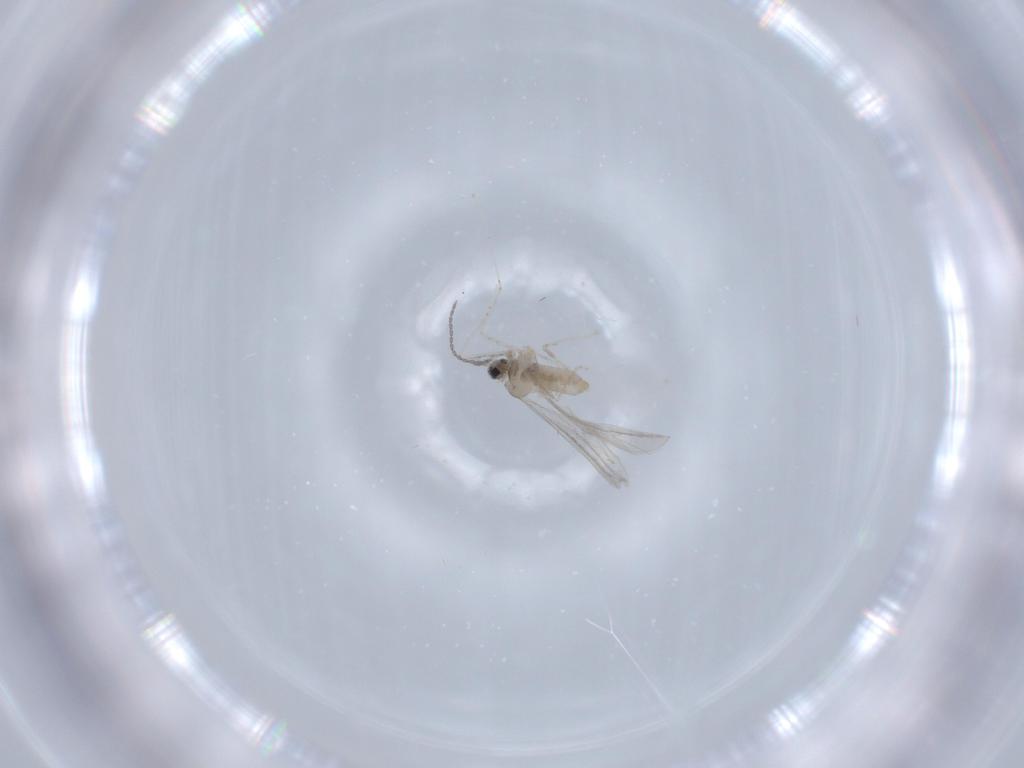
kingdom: Animalia
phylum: Arthropoda
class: Insecta
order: Diptera
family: Cecidomyiidae
